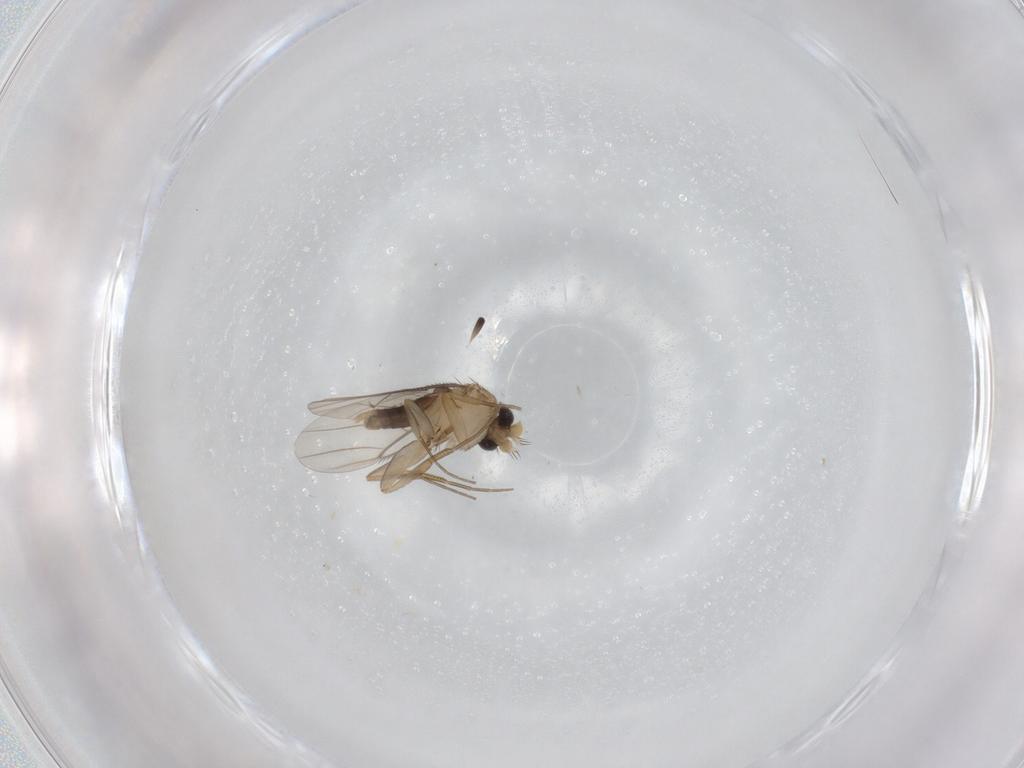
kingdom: Animalia
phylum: Arthropoda
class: Insecta
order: Diptera
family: Phoridae
